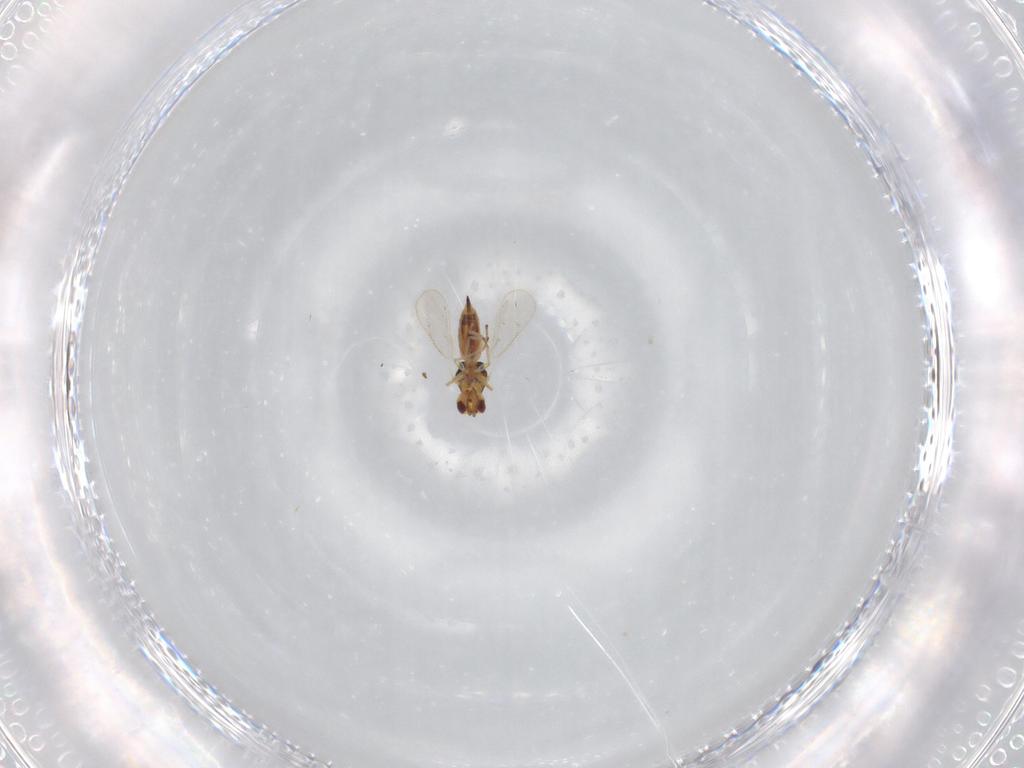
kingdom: Animalia
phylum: Arthropoda
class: Insecta
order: Hymenoptera
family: Eulophidae
